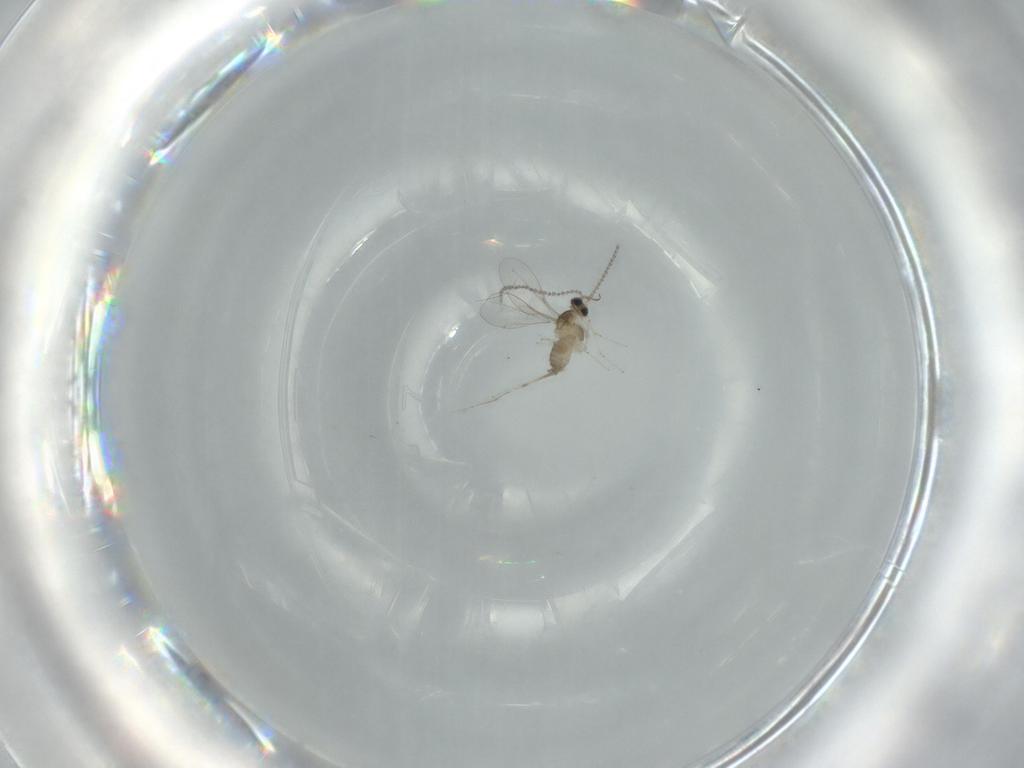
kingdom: Animalia
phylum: Arthropoda
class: Insecta
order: Diptera
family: Cecidomyiidae
